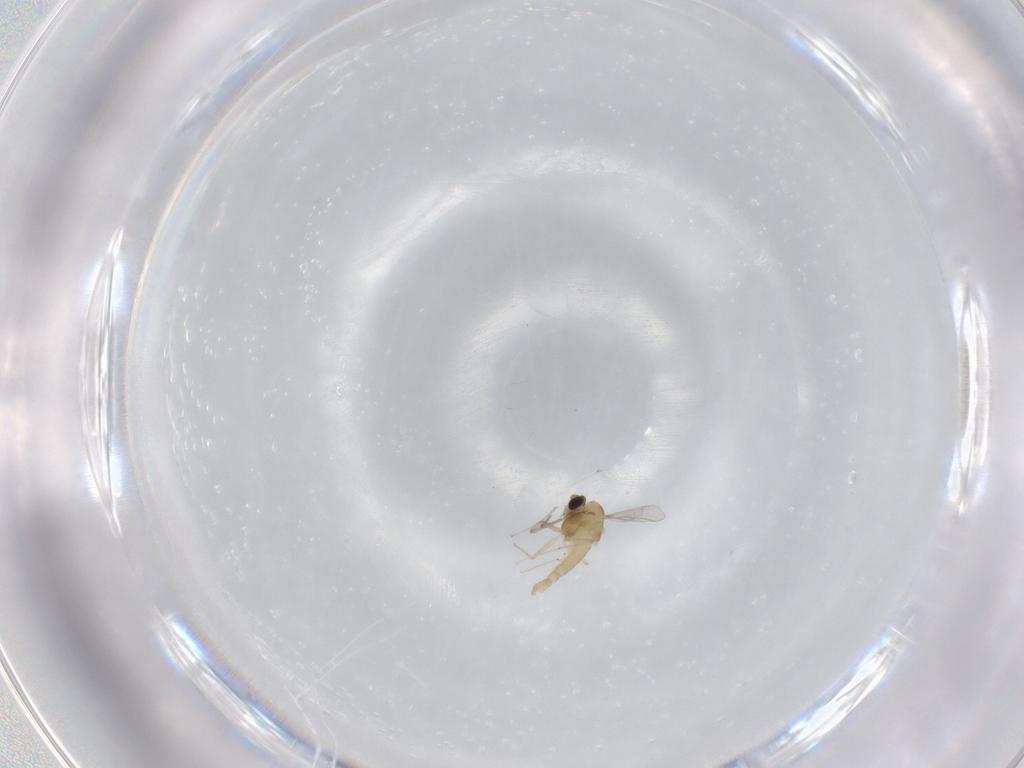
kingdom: Animalia
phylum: Arthropoda
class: Insecta
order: Diptera
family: Chironomidae
